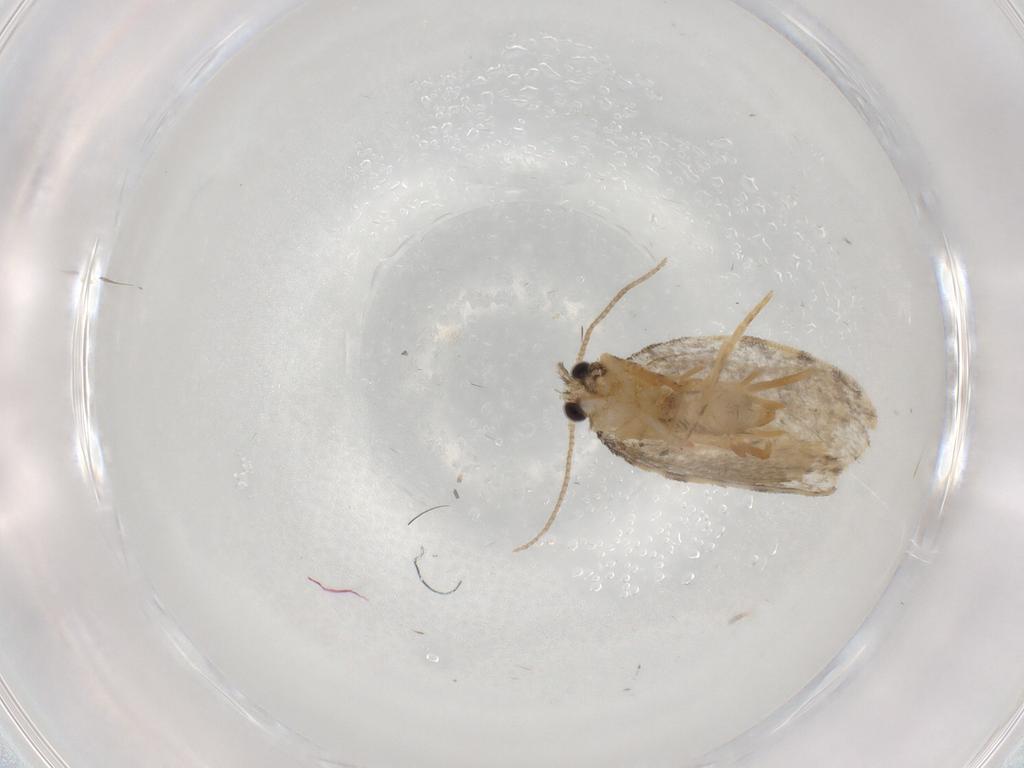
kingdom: Animalia
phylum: Arthropoda
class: Insecta
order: Lepidoptera
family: Psychidae
